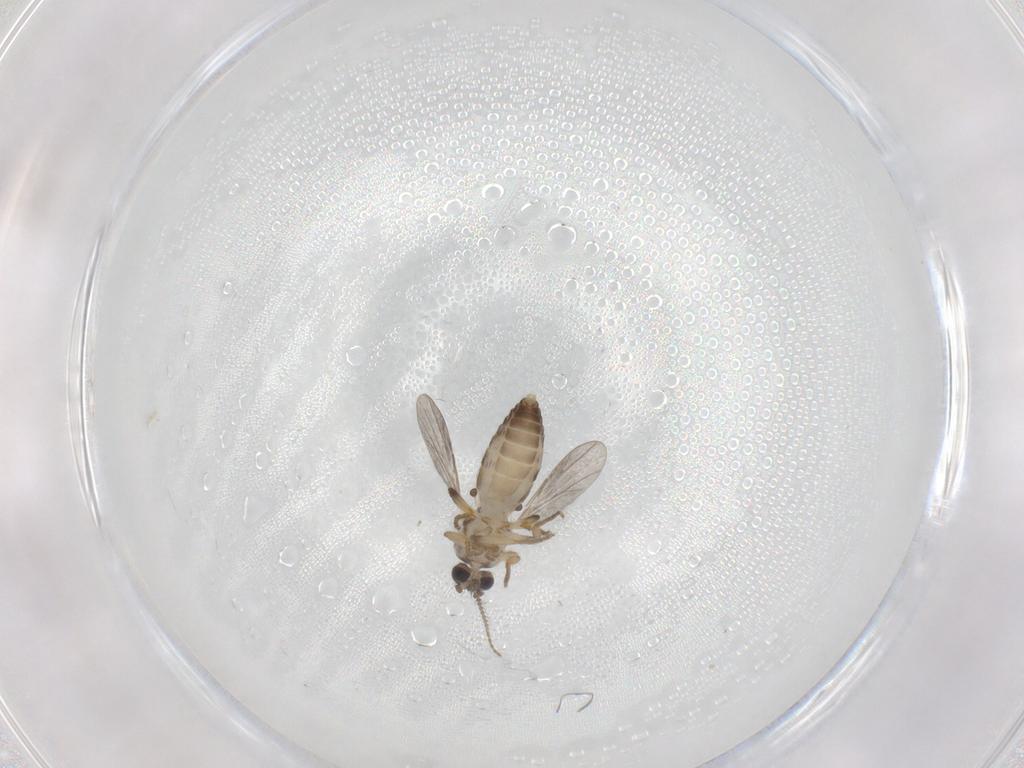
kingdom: Animalia
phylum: Arthropoda
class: Insecta
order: Diptera
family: Ceratopogonidae
